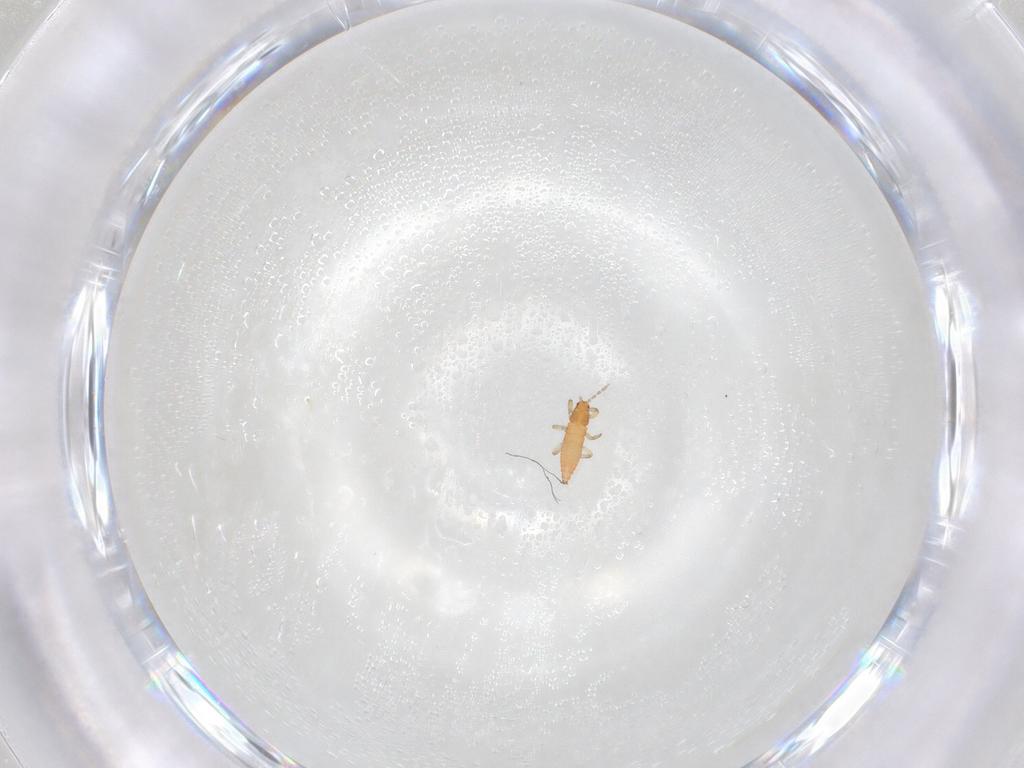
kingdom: Animalia
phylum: Arthropoda
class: Insecta
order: Thysanoptera
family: Aeolothripidae
